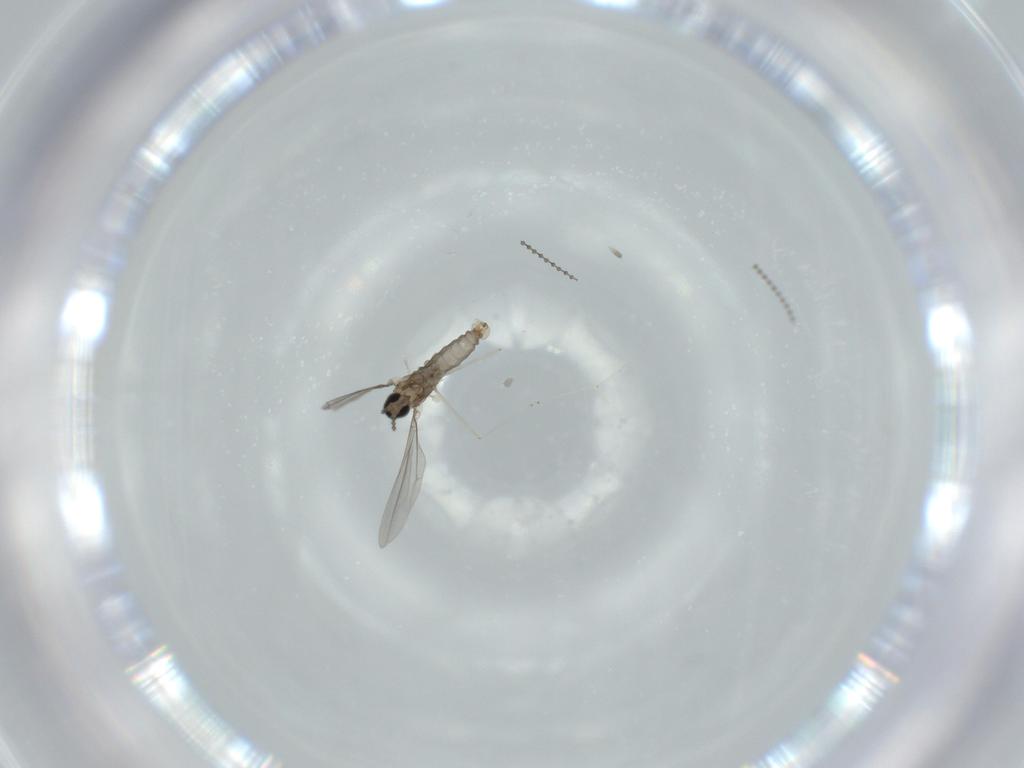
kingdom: Animalia
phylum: Arthropoda
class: Insecta
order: Diptera
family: Cecidomyiidae
